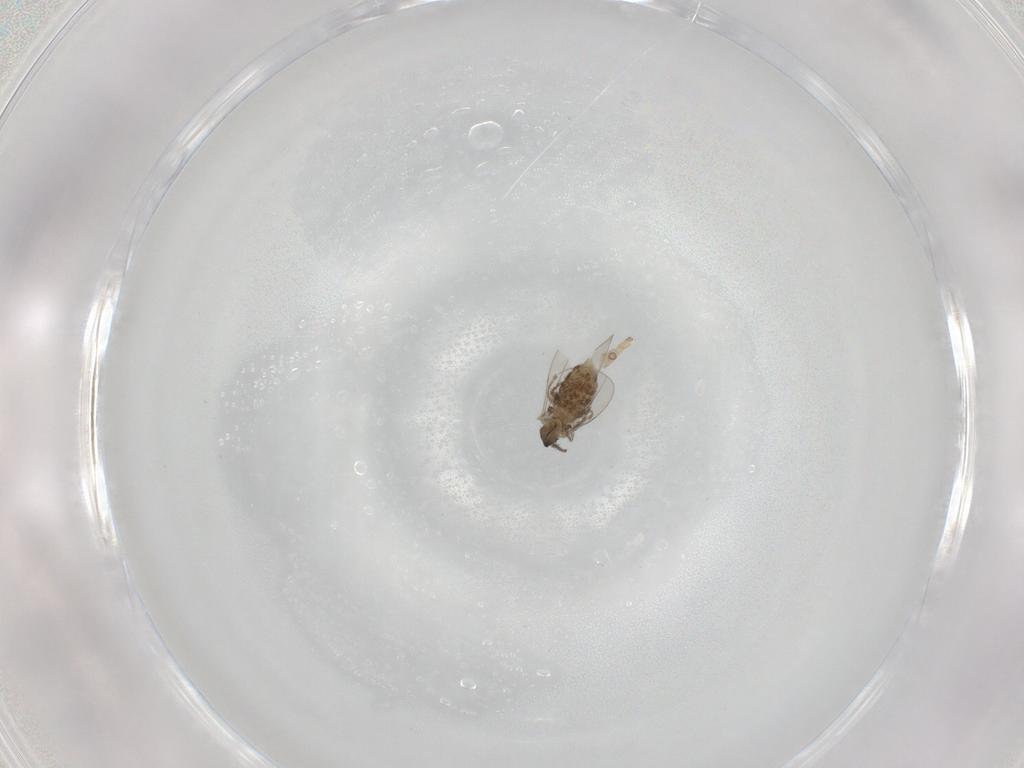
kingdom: Animalia
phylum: Arthropoda
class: Insecta
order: Diptera
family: Cecidomyiidae
